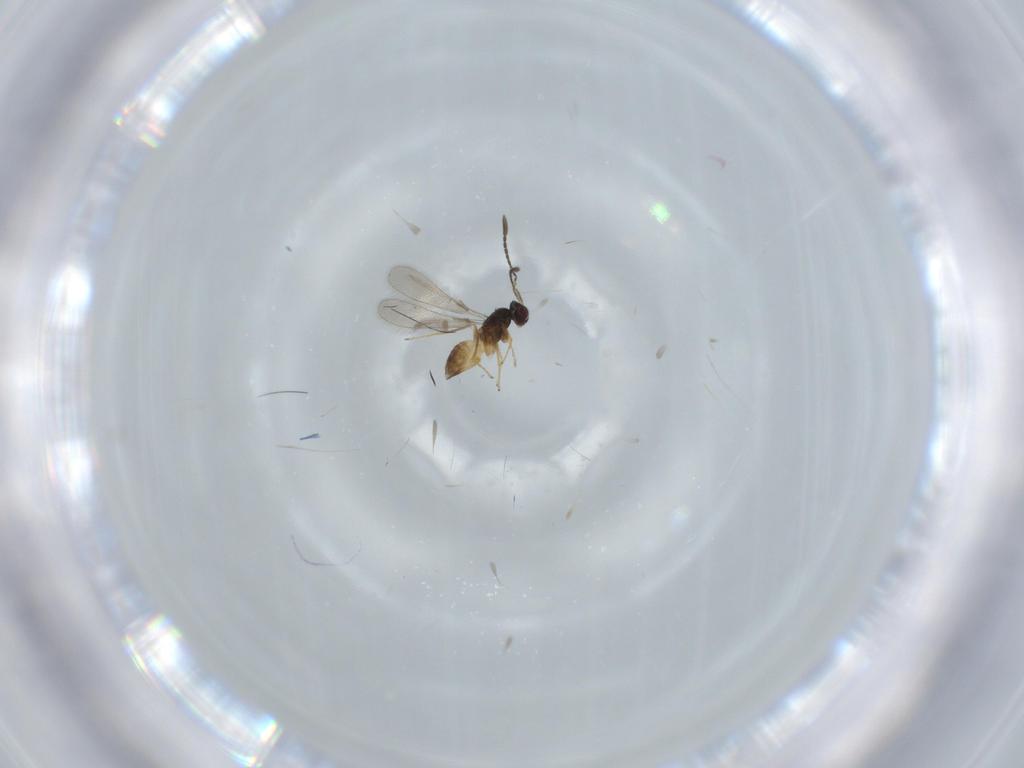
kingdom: Animalia
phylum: Arthropoda
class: Insecta
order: Hymenoptera
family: Mymaridae
